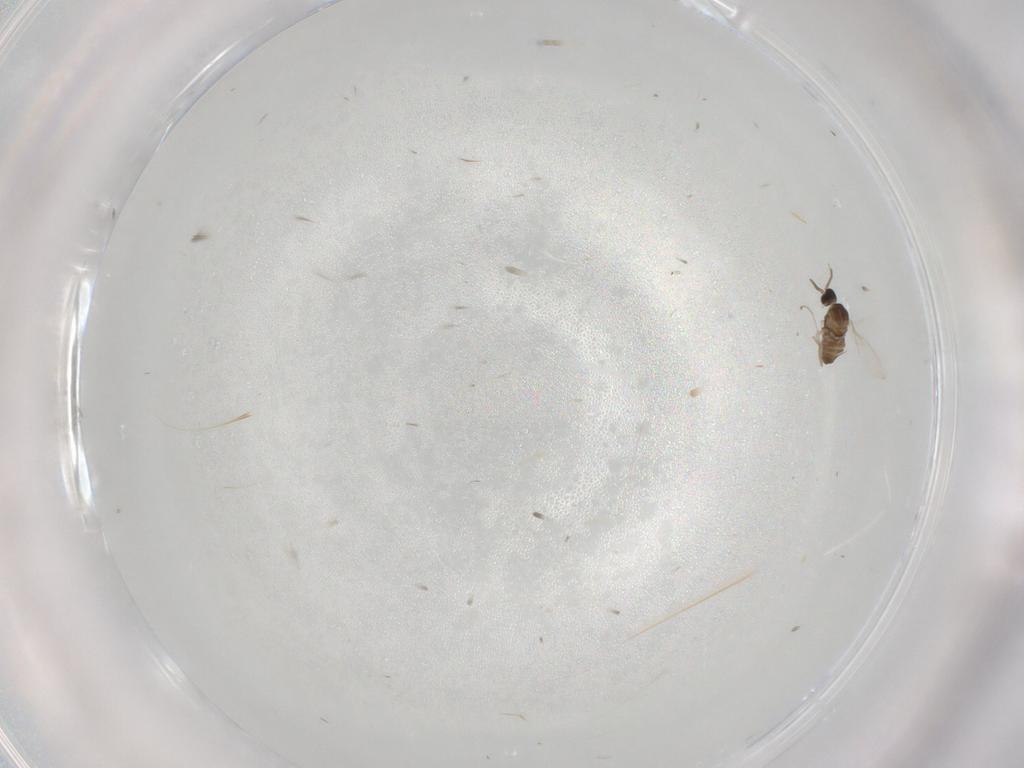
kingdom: Animalia
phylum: Arthropoda
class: Insecta
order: Diptera
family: Cecidomyiidae
